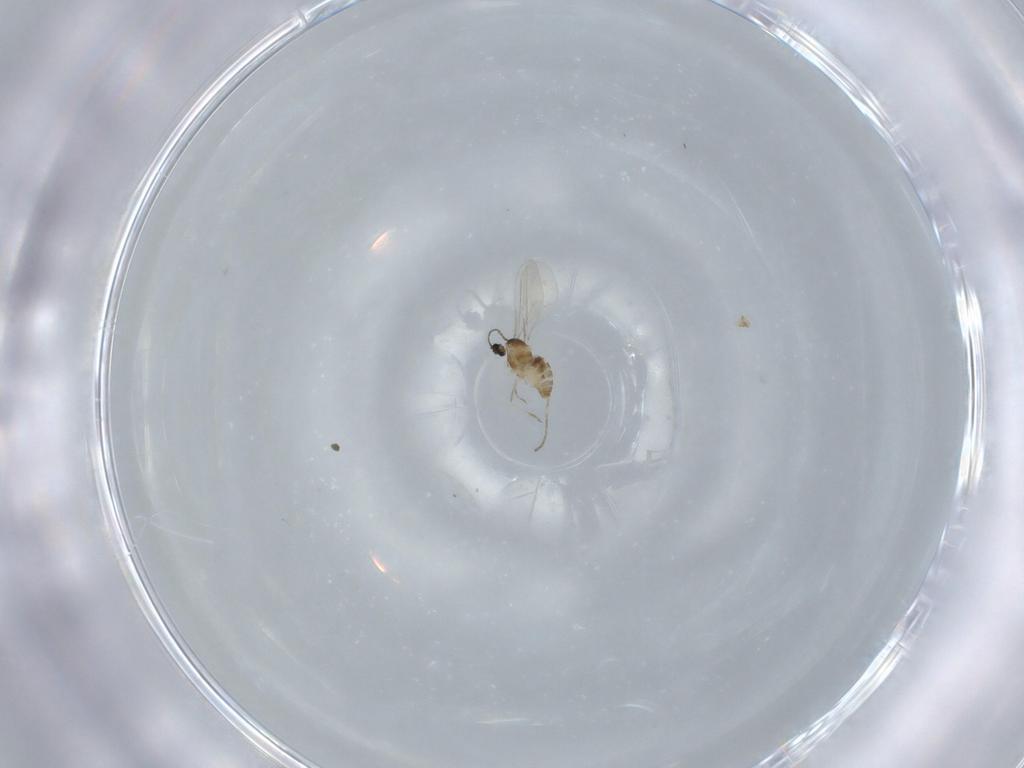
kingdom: Animalia
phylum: Arthropoda
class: Insecta
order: Diptera
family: Cecidomyiidae
